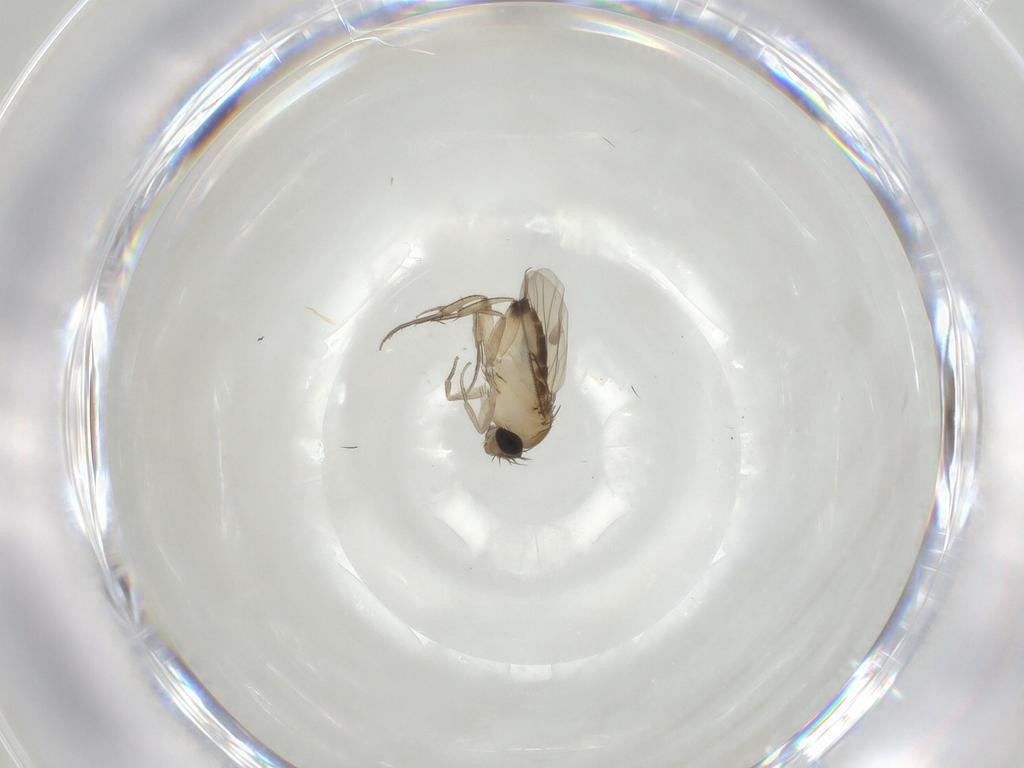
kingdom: Animalia
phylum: Arthropoda
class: Insecta
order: Diptera
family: Phoridae
